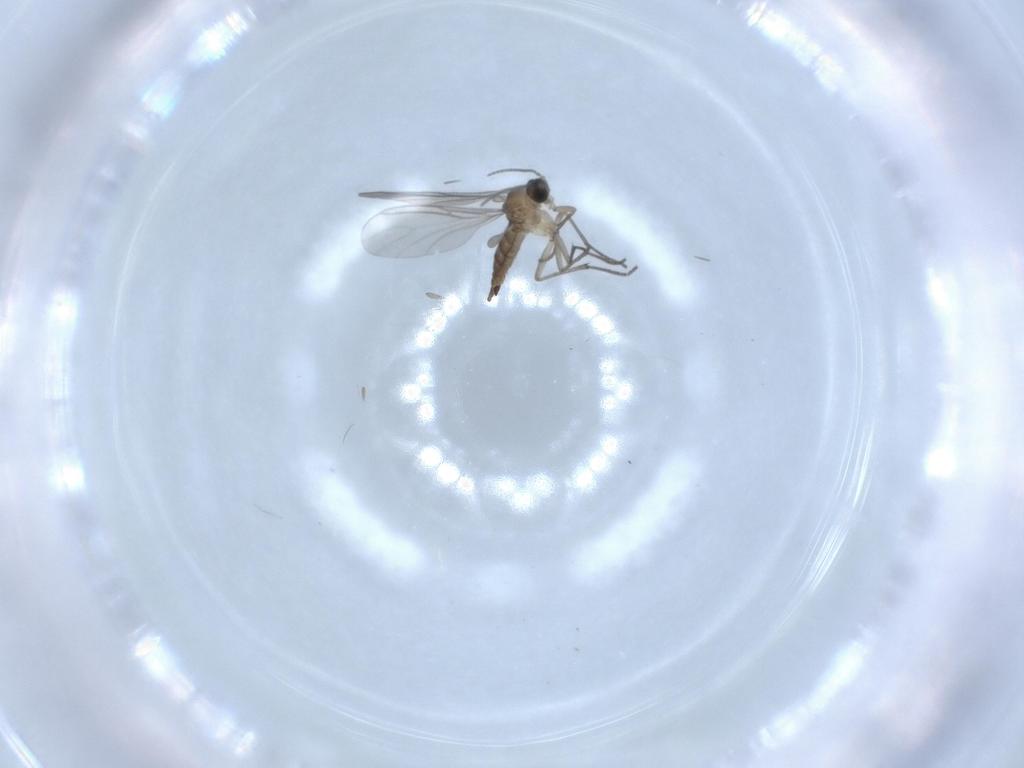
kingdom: Animalia
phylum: Arthropoda
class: Insecta
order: Diptera
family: Sciaridae
